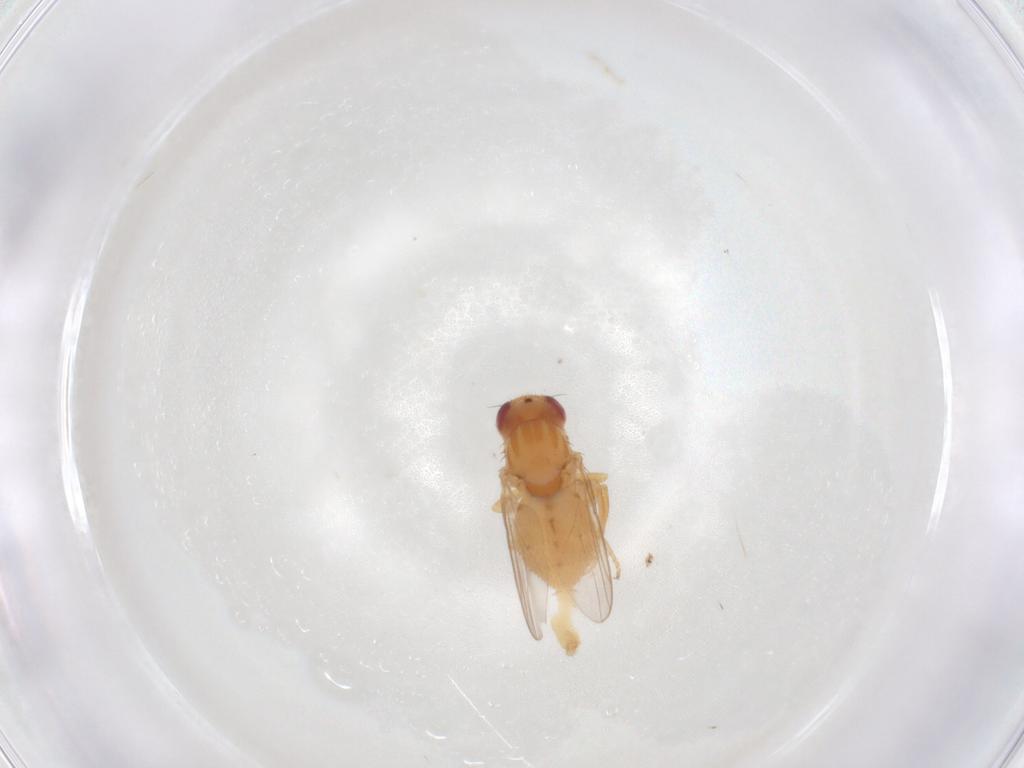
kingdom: Animalia
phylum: Arthropoda
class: Insecta
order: Diptera
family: Chloropidae
